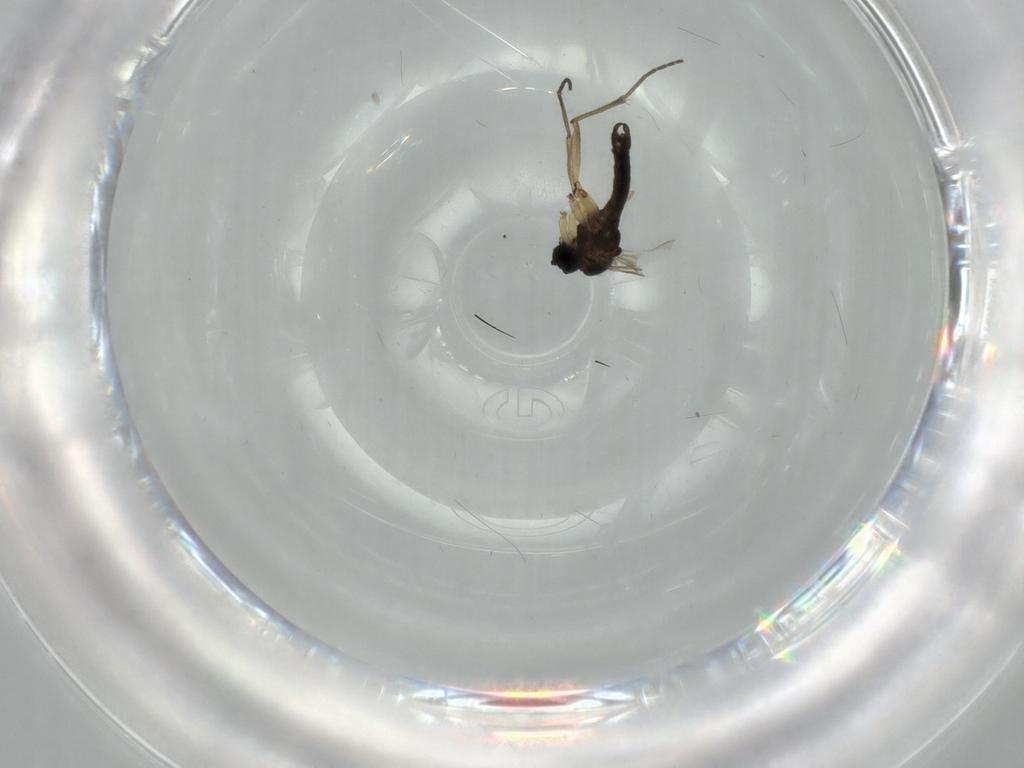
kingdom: Animalia
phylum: Arthropoda
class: Insecta
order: Diptera
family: Sciaridae
